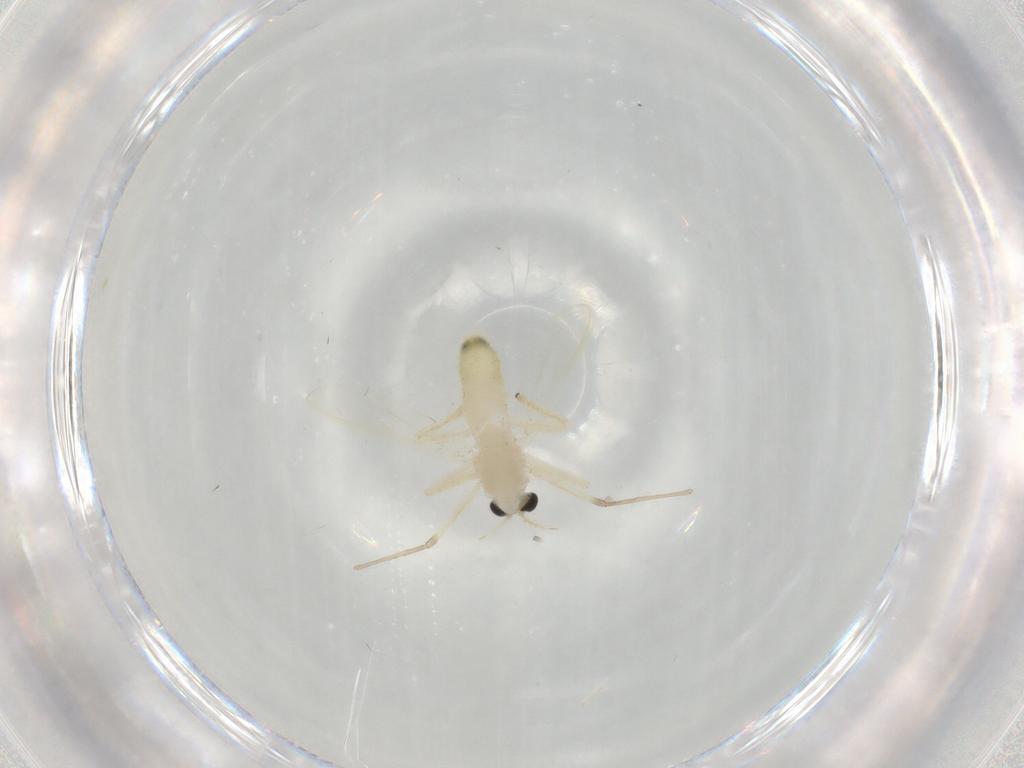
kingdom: Animalia
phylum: Arthropoda
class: Insecta
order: Diptera
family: Chironomidae
